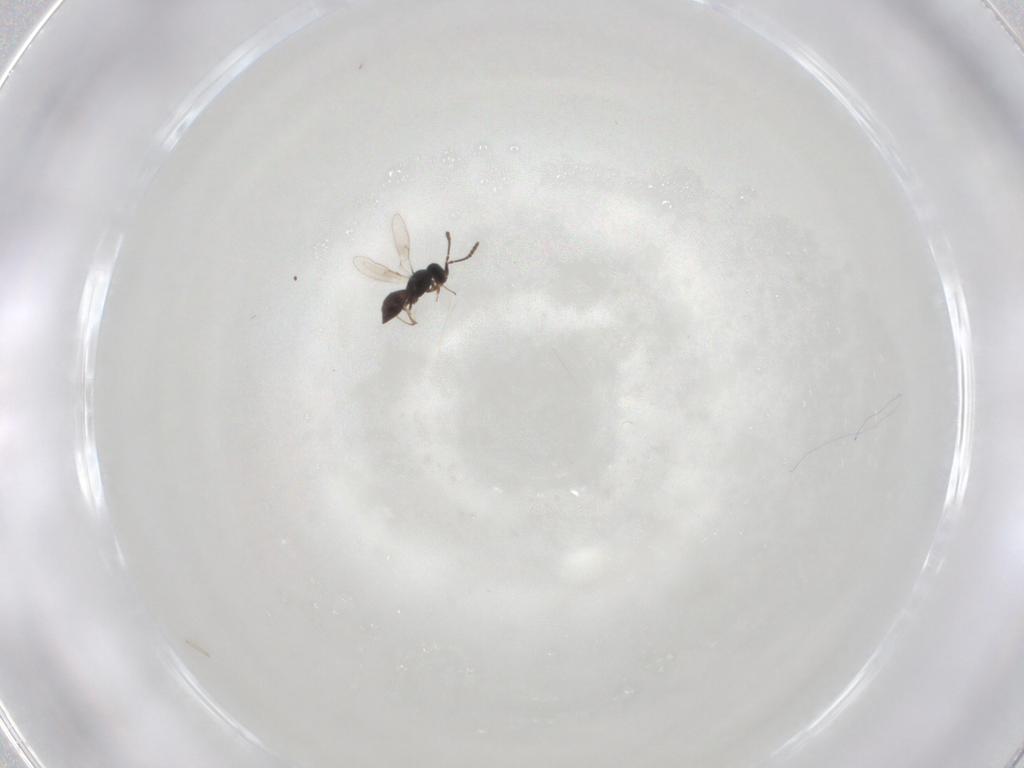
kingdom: Animalia
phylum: Arthropoda
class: Insecta
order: Hymenoptera
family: Scelionidae
